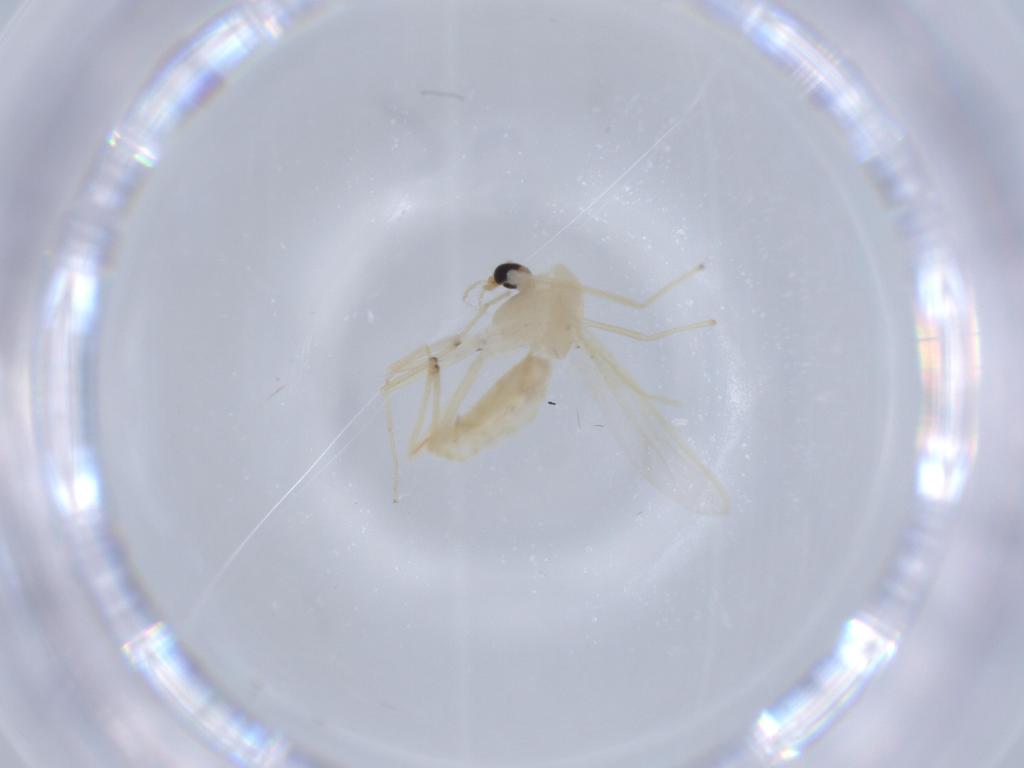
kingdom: Animalia
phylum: Arthropoda
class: Insecta
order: Diptera
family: Chironomidae
